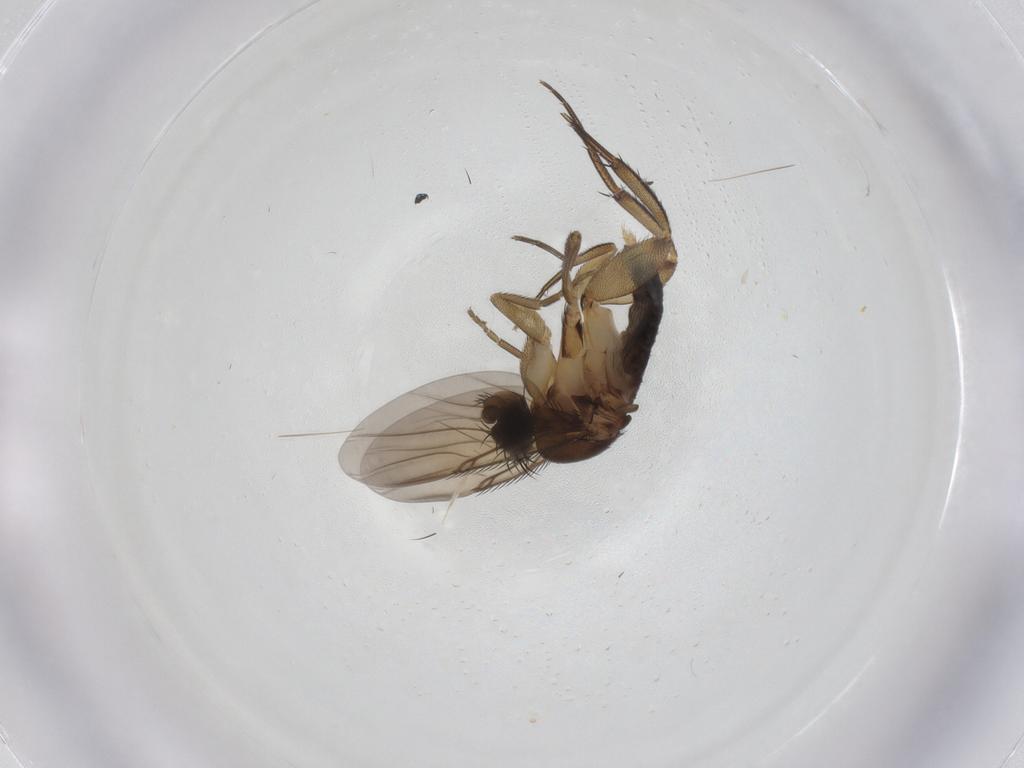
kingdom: Animalia
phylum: Arthropoda
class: Insecta
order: Diptera
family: Phoridae
